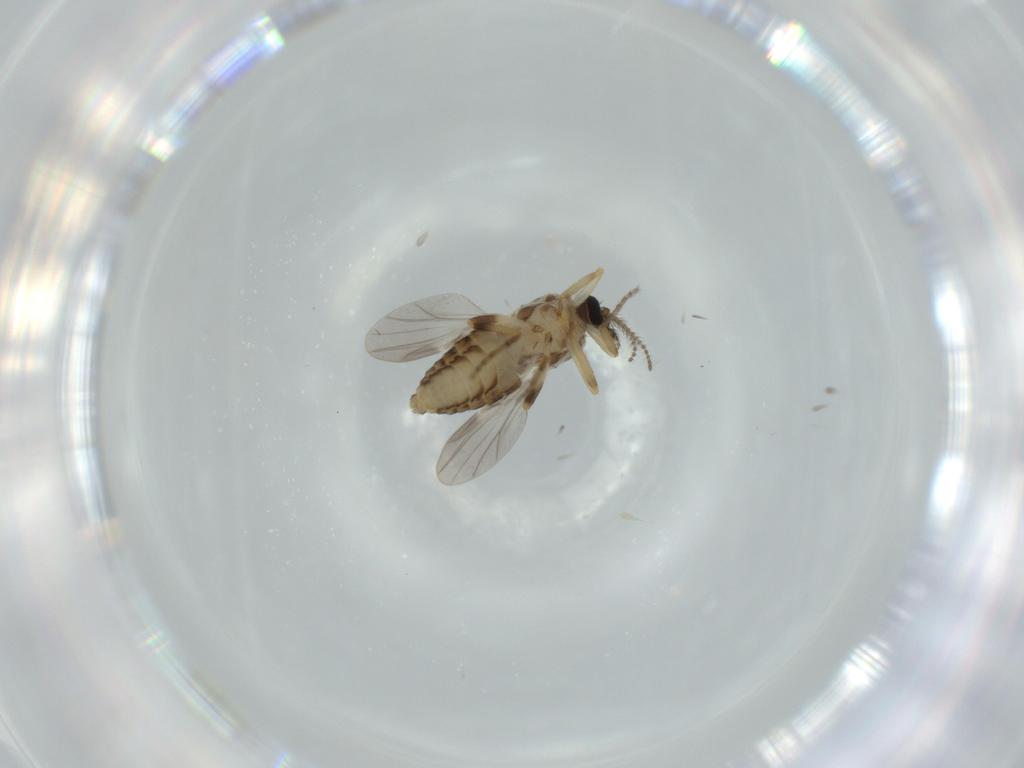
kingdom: Animalia
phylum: Arthropoda
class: Insecta
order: Diptera
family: Ceratopogonidae
